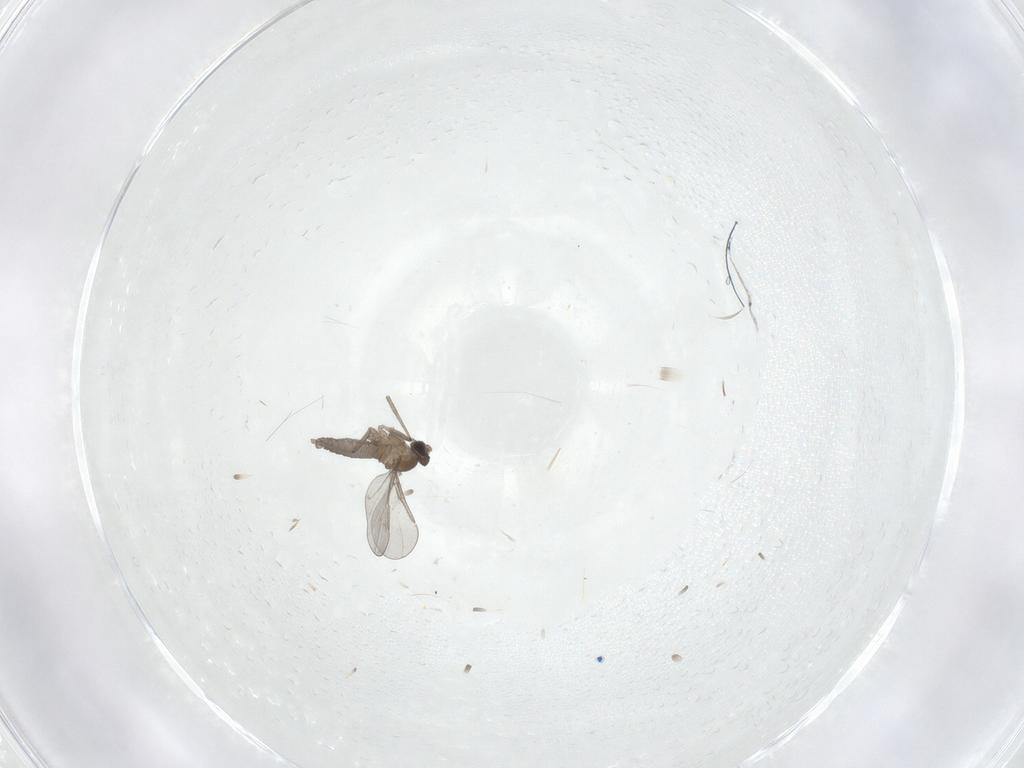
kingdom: Animalia
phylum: Arthropoda
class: Insecta
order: Diptera
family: Cecidomyiidae
